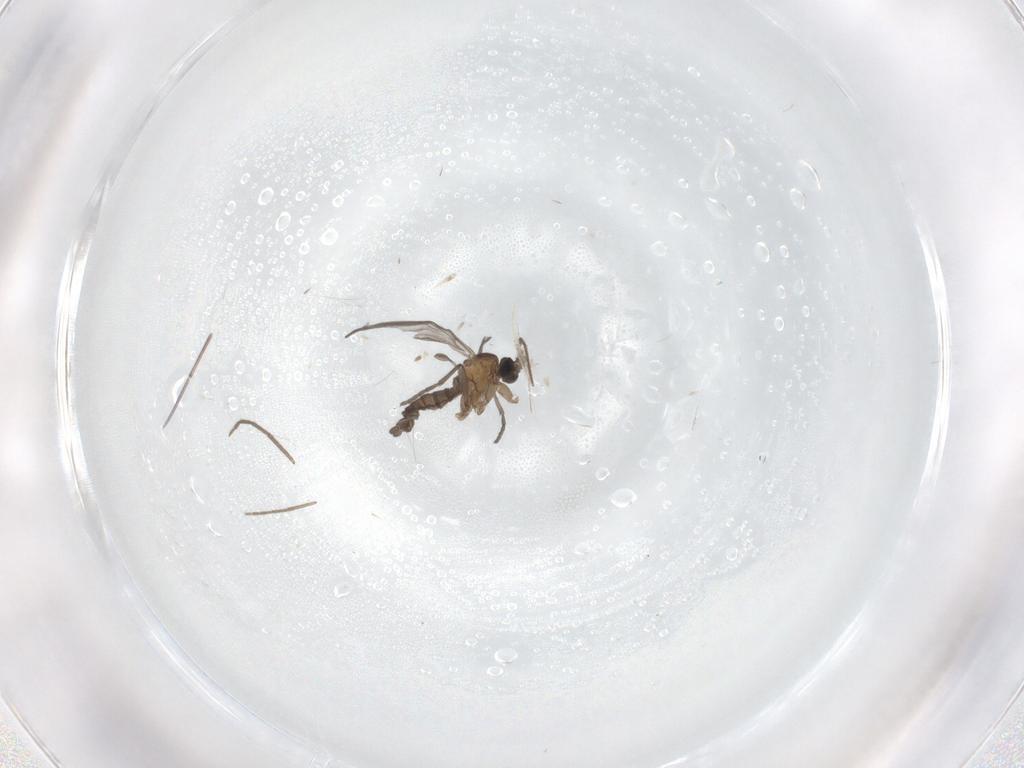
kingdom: Animalia
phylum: Arthropoda
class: Insecta
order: Diptera
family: Sciaridae
